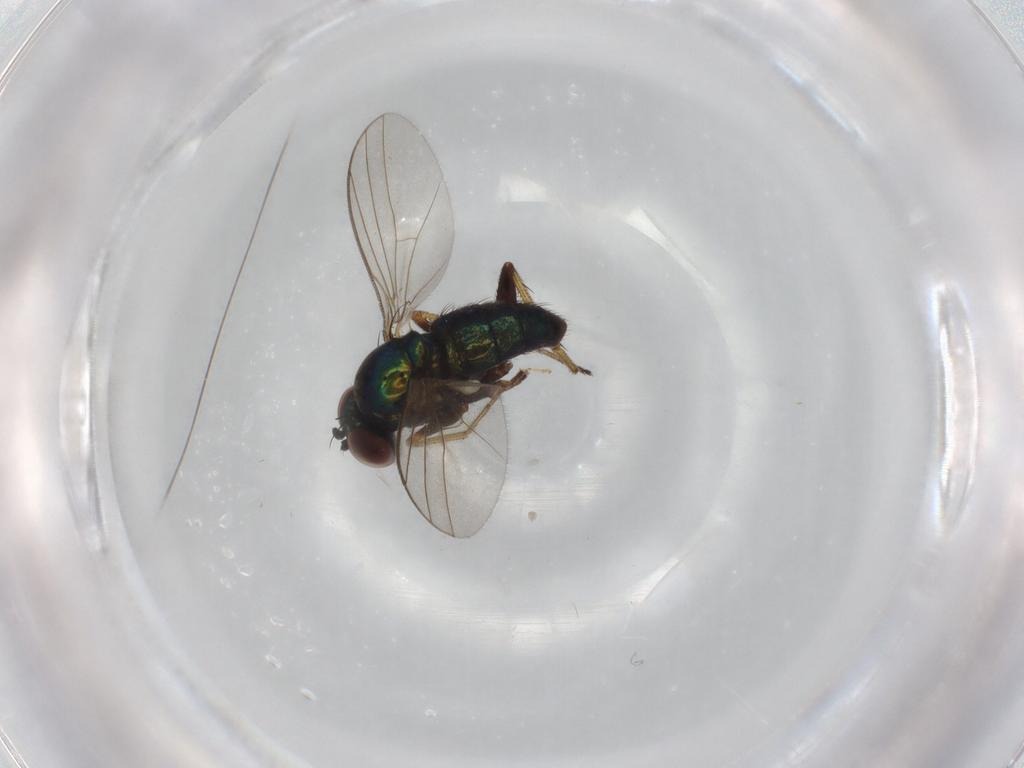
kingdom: Animalia
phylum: Arthropoda
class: Insecta
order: Diptera
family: Dolichopodidae
